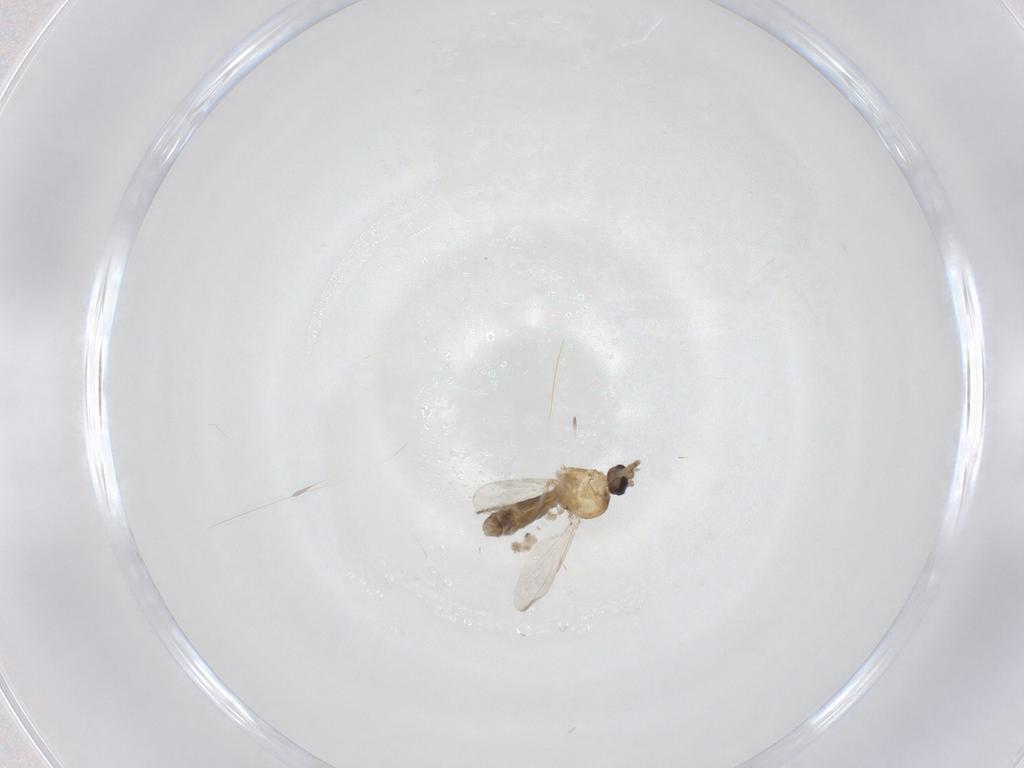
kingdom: Animalia
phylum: Arthropoda
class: Insecta
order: Diptera
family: Ceratopogonidae
